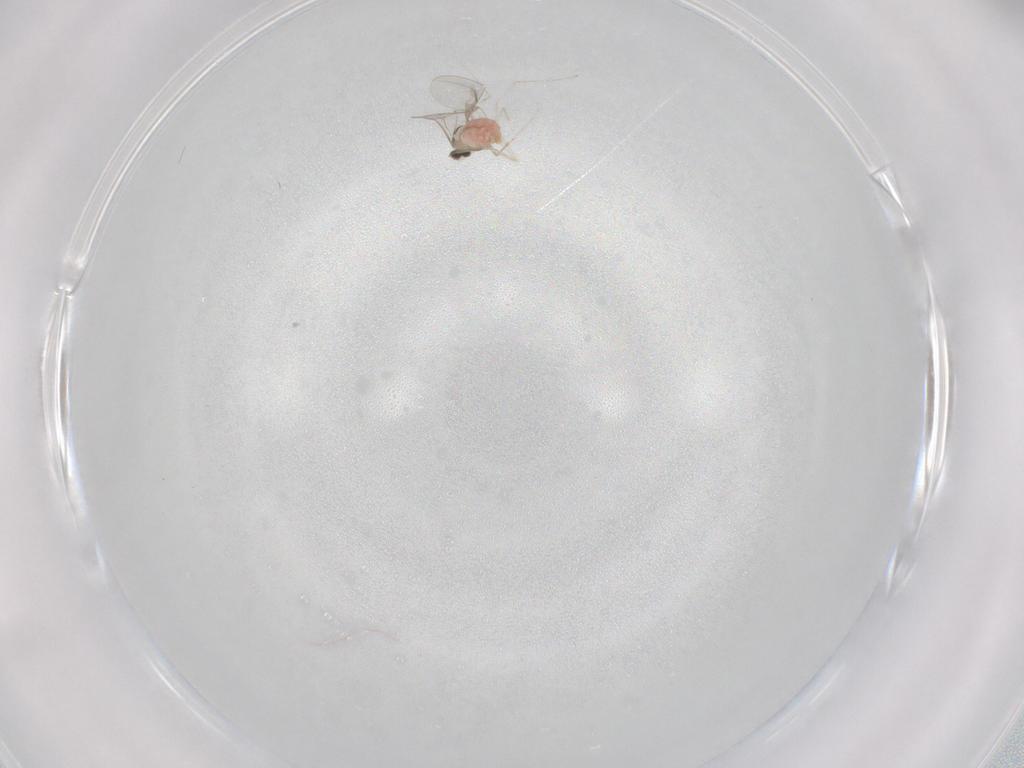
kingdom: Animalia
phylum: Arthropoda
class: Insecta
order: Diptera
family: Cecidomyiidae
